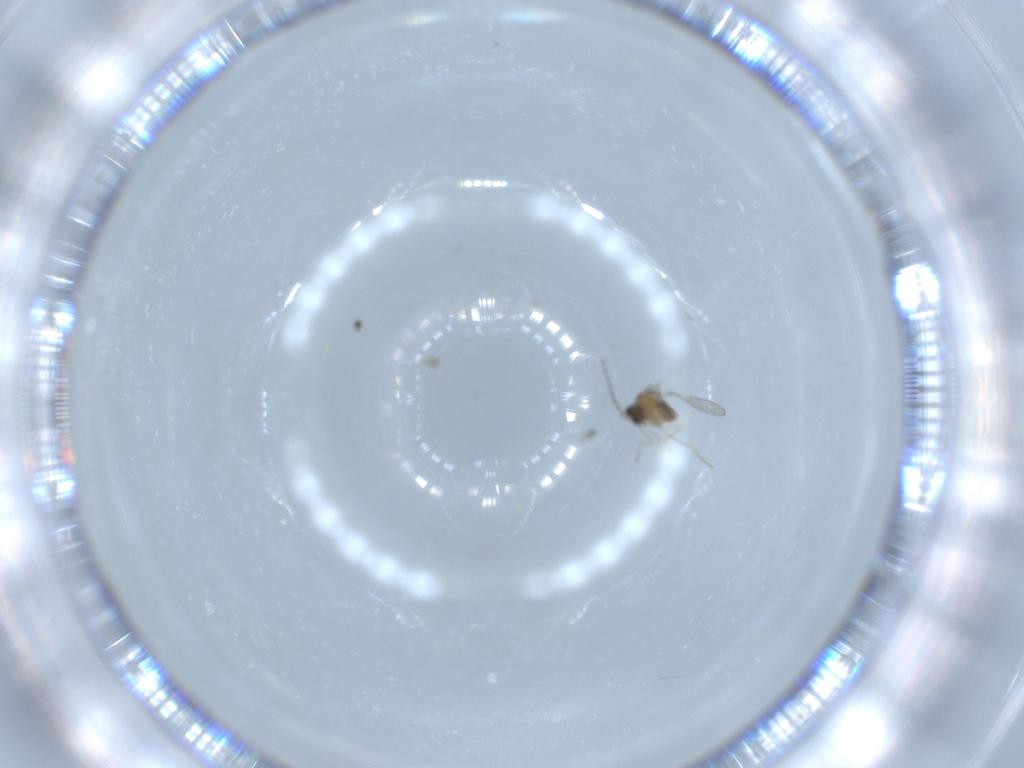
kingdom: Animalia
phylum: Arthropoda
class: Insecta
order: Diptera
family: Cecidomyiidae
